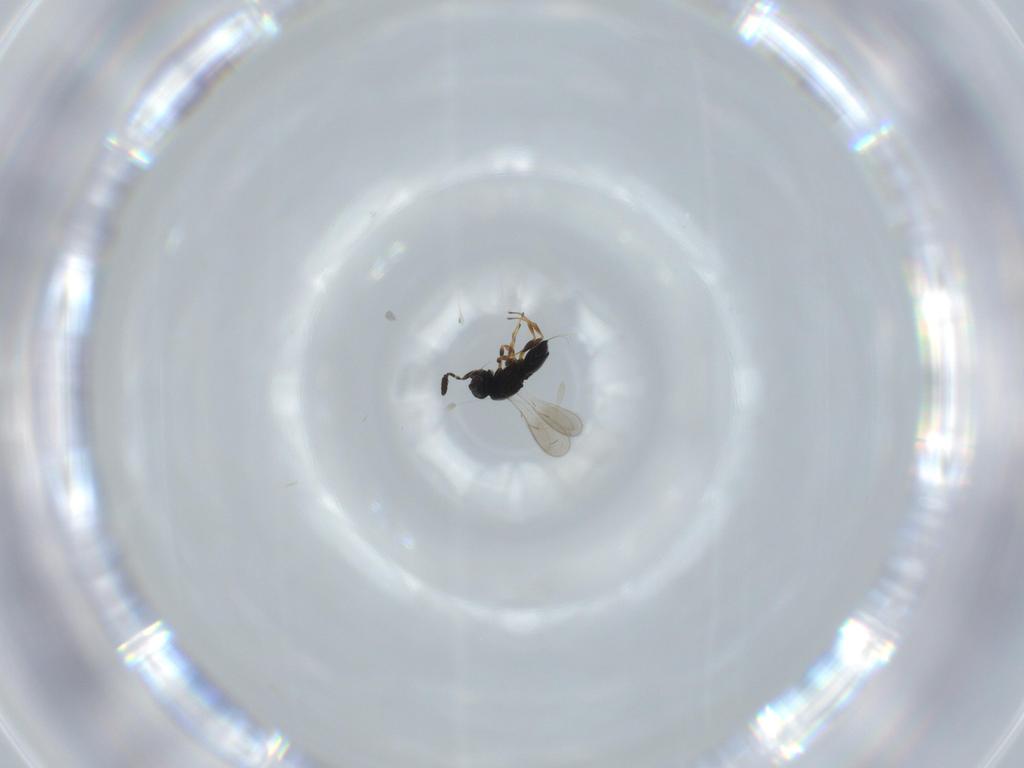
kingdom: Animalia
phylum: Arthropoda
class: Insecta
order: Hymenoptera
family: Scelionidae
